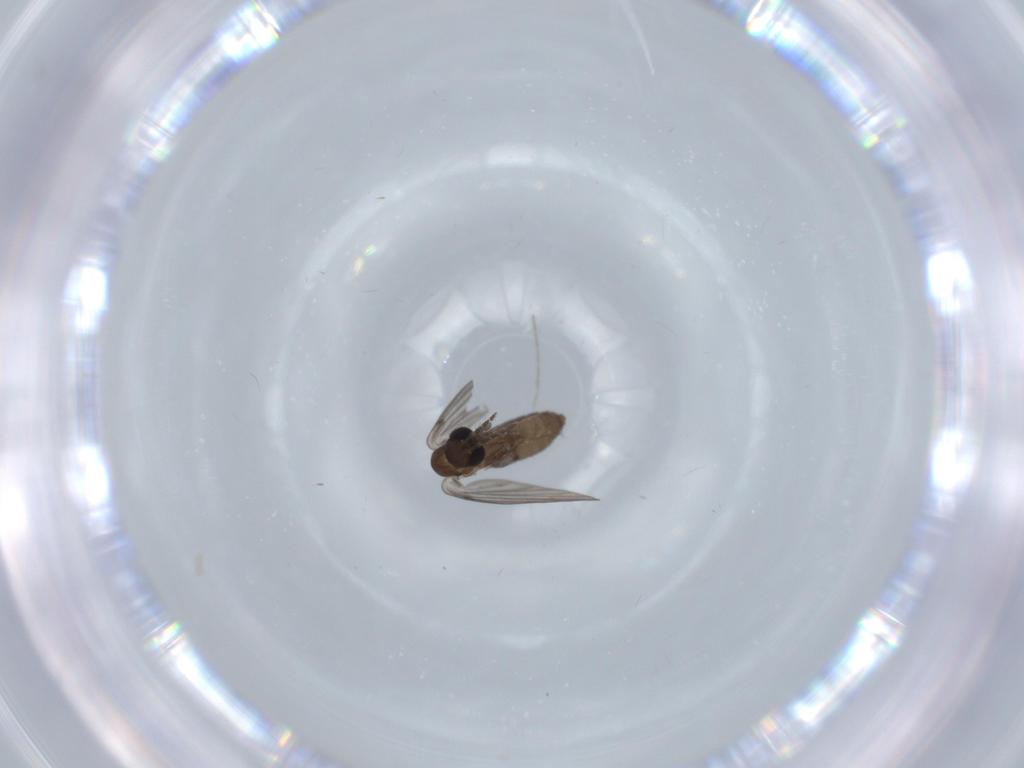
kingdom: Animalia
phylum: Arthropoda
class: Insecta
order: Diptera
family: Psychodidae
